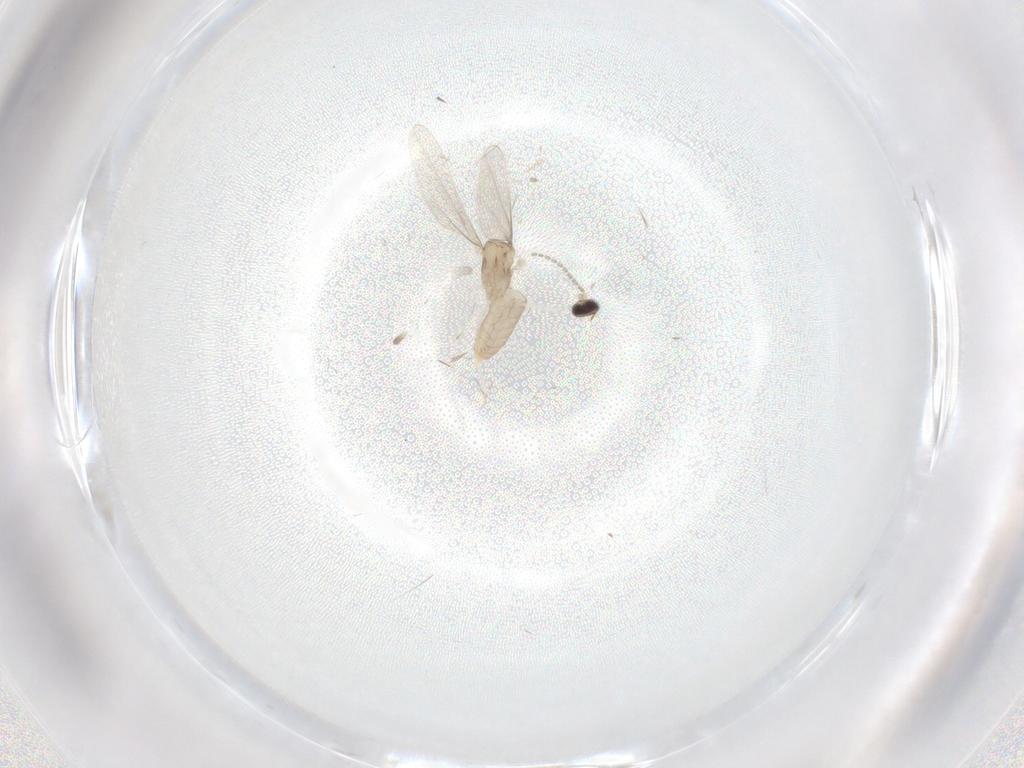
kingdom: Animalia
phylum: Arthropoda
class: Insecta
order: Diptera
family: Cecidomyiidae
